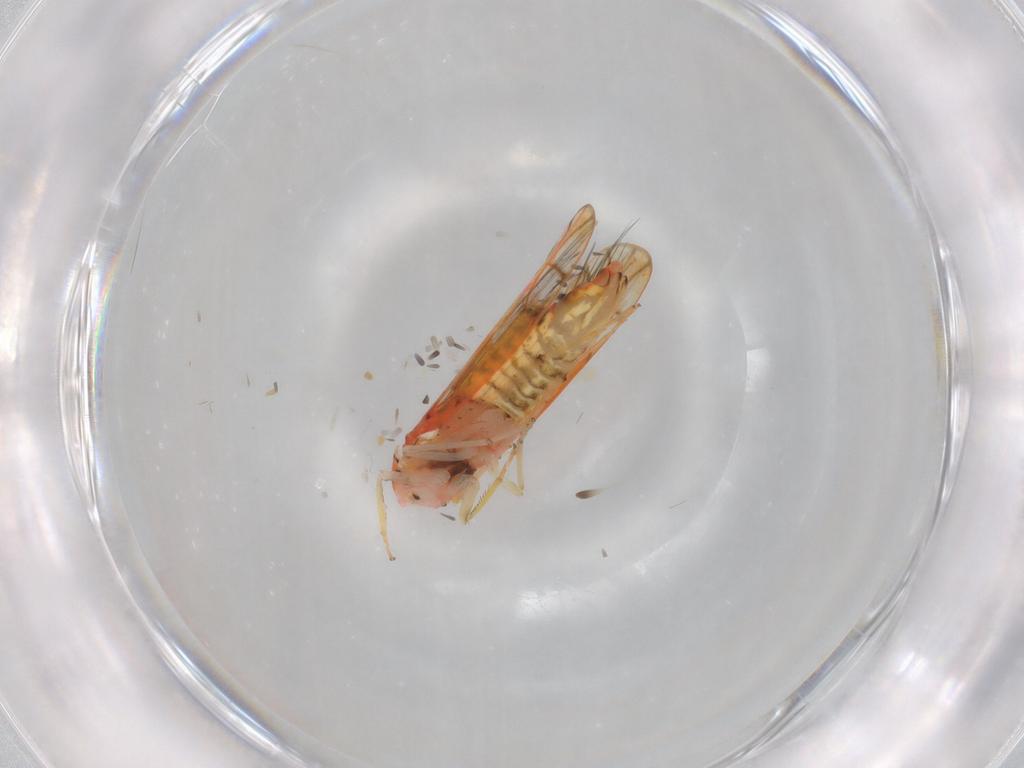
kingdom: Animalia
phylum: Arthropoda
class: Insecta
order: Hemiptera
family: Cicadellidae
